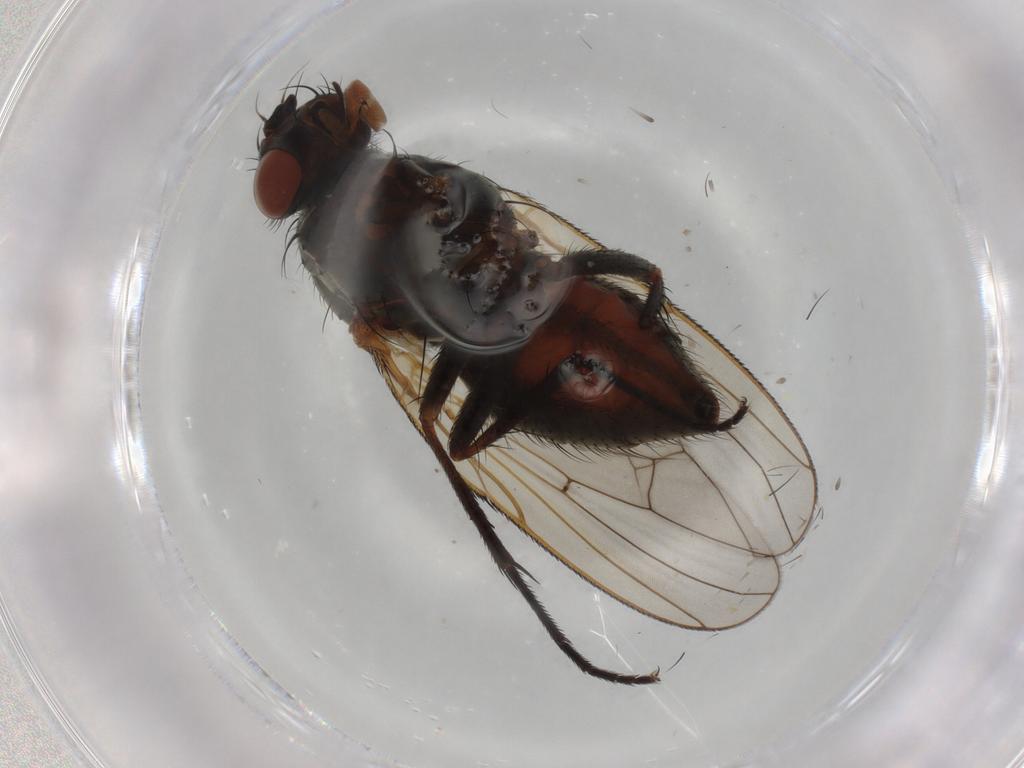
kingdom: Animalia
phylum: Arthropoda
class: Insecta
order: Diptera
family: Anthomyiidae
